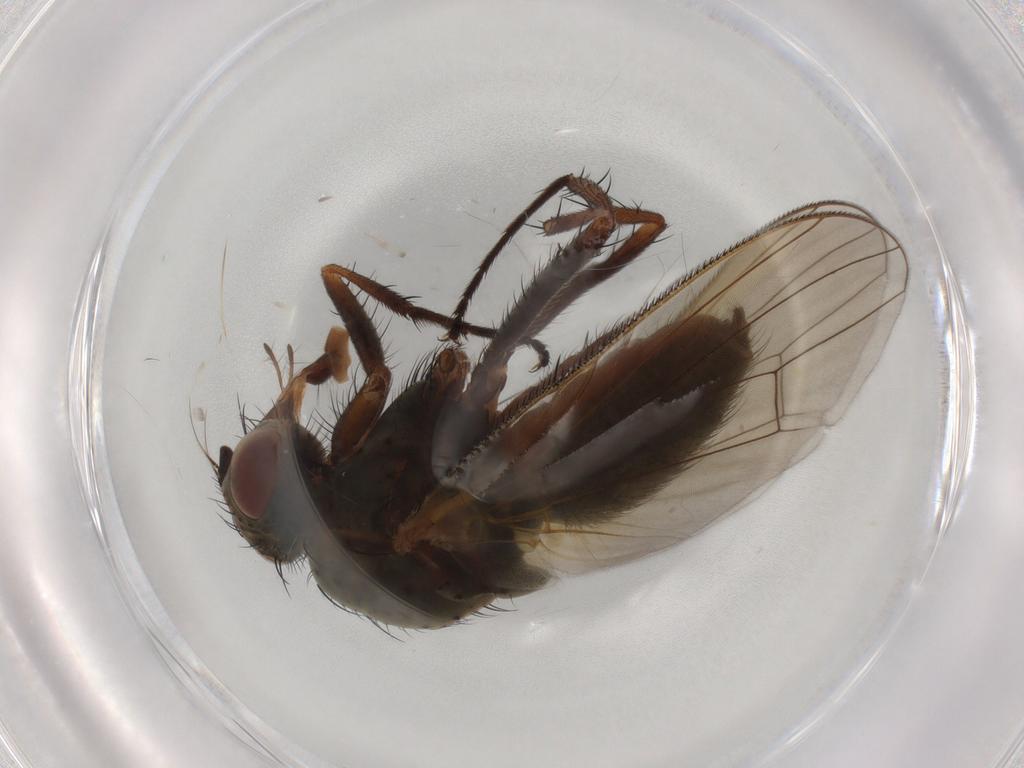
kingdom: Animalia
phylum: Arthropoda
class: Insecta
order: Diptera
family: Anthomyiidae
